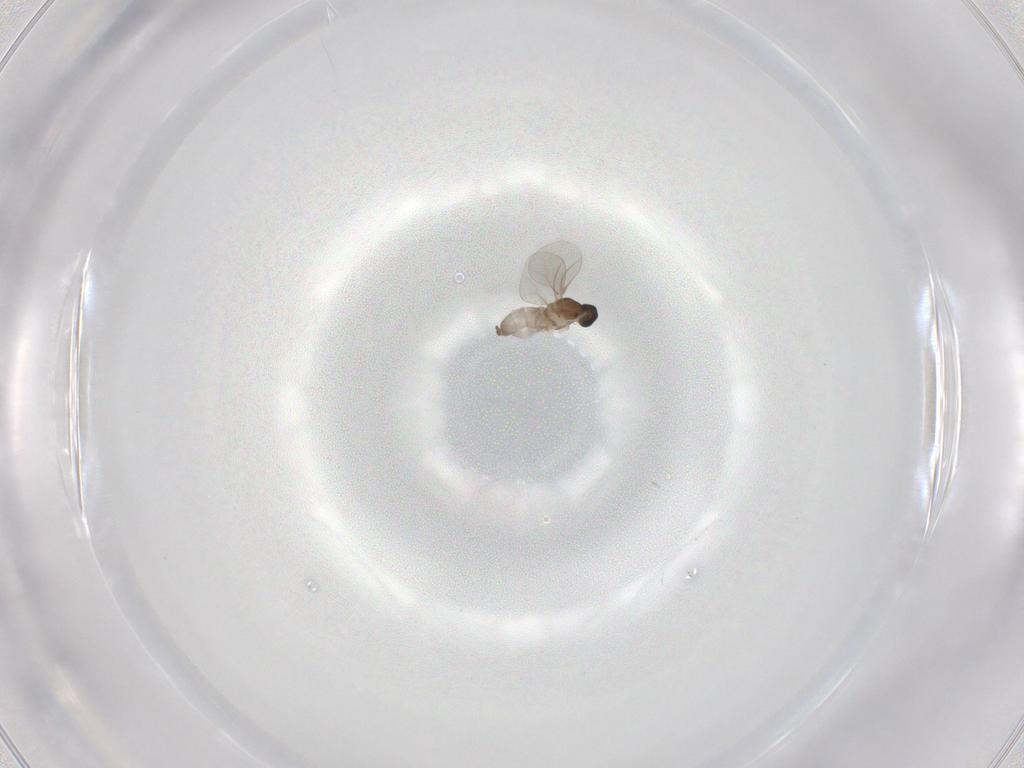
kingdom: Animalia
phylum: Arthropoda
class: Insecta
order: Diptera
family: Cecidomyiidae
